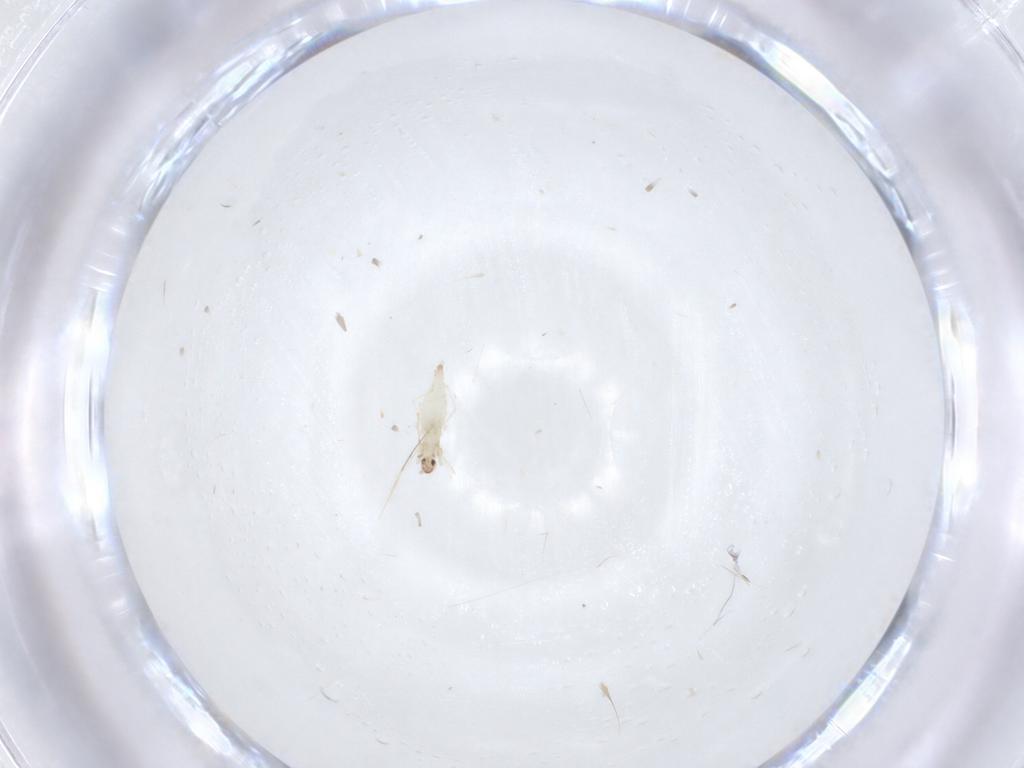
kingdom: Animalia
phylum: Arthropoda
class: Insecta
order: Diptera
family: Cecidomyiidae
